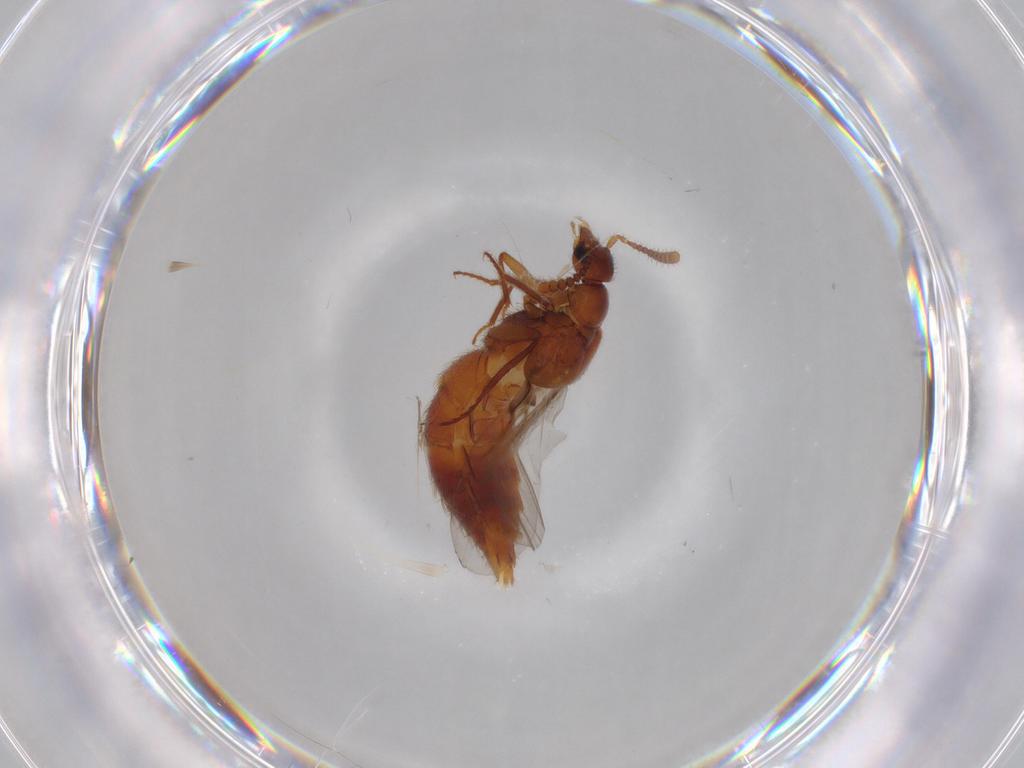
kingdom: Animalia
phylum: Arthropoda
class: Insecta
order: Coleoptera
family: Staphylinidae
